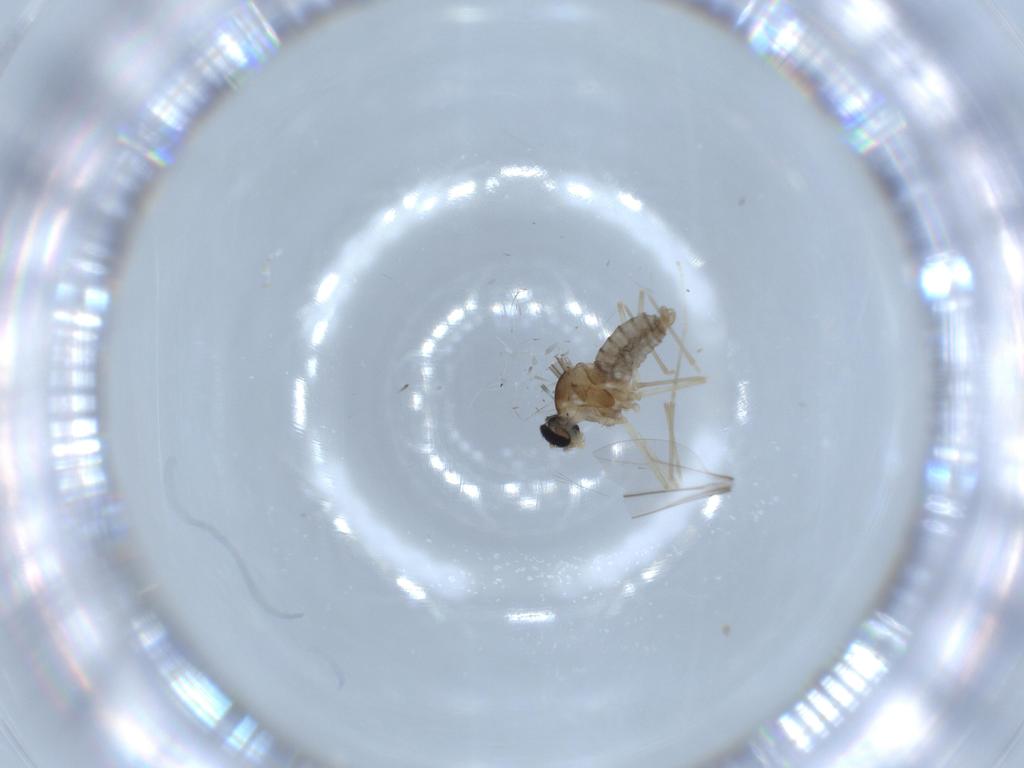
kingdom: Animalia
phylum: Arthropoda
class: Insecta
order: Diptera
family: Cecidomyiidae
